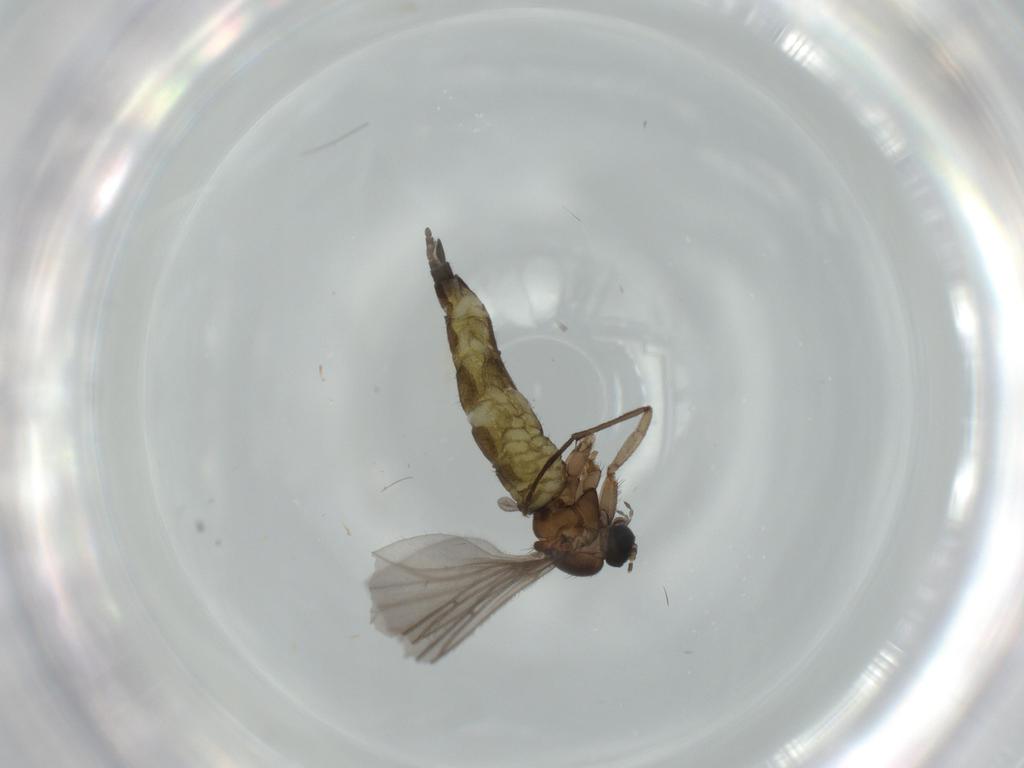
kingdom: Animalia
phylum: Arthropoda
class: Insecta
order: Diptera
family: Sciaridae
